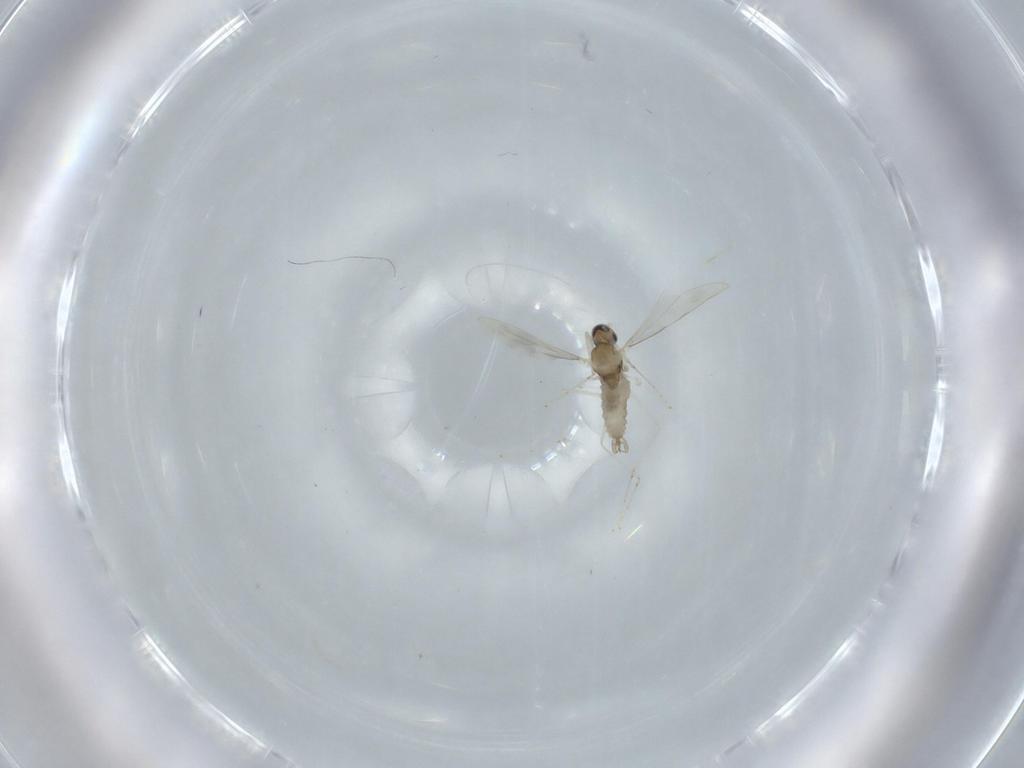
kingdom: Animalia
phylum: Arthropoda
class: Insecta
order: Diptera
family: Cecidomyiidae
